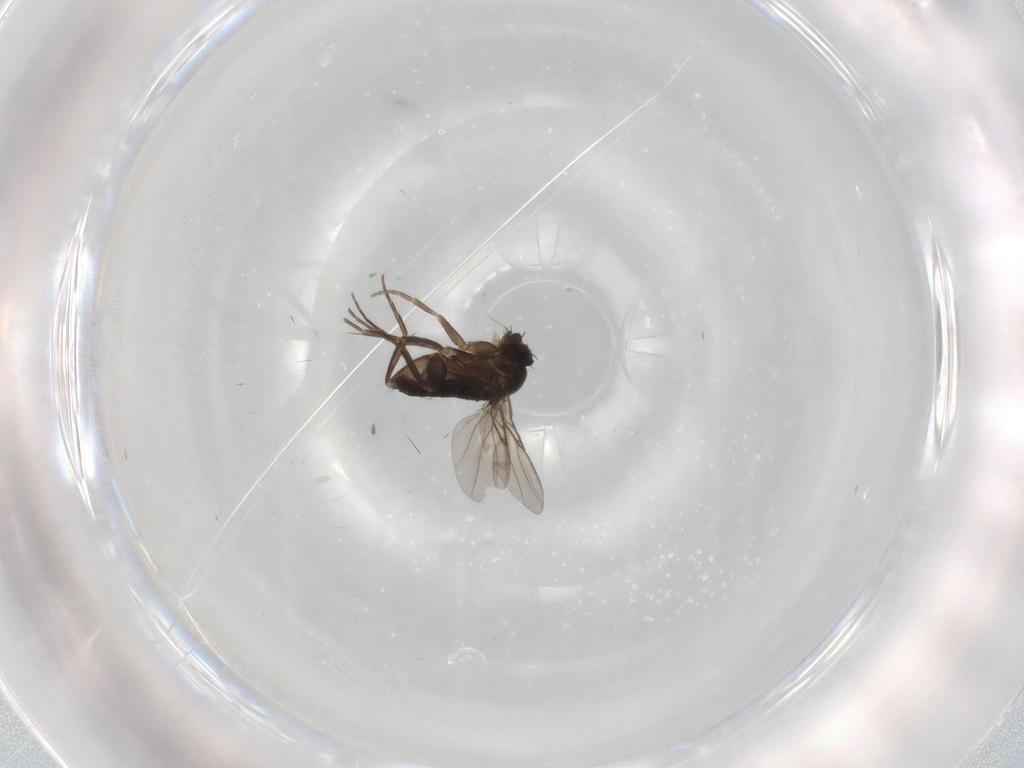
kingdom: Animalia
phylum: Arthropoda
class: Insecta
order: Diptera
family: Phoridae
